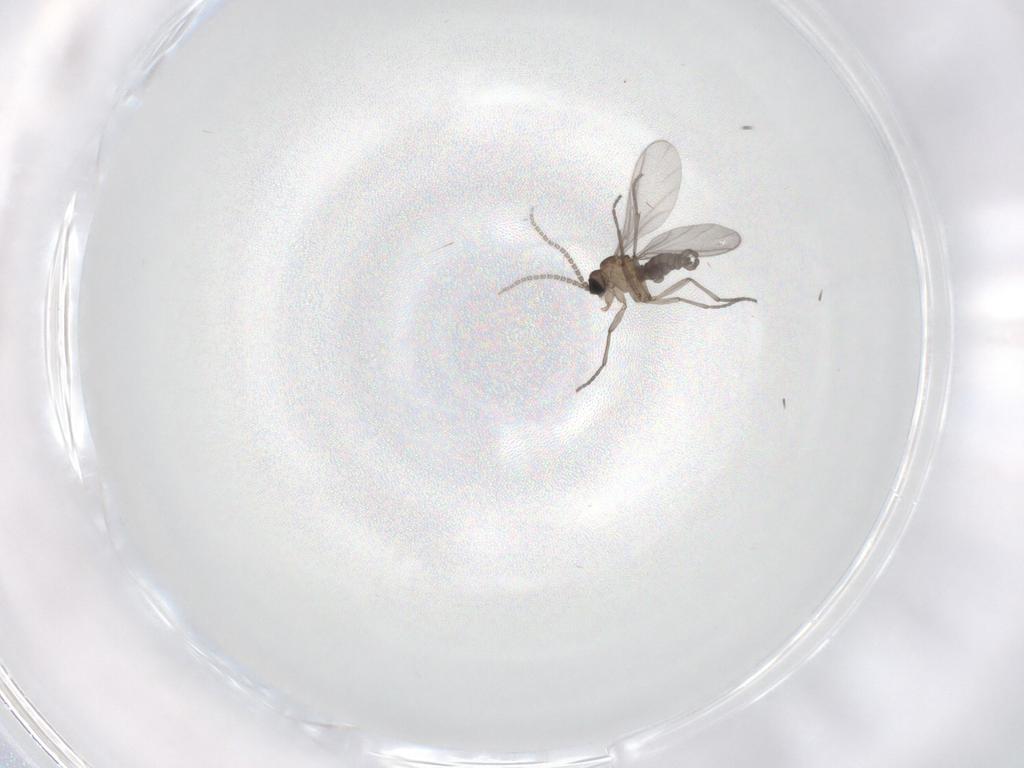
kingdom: Animalia
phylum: Arthropoda
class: Insecta
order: Diptera
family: Sciaridae
